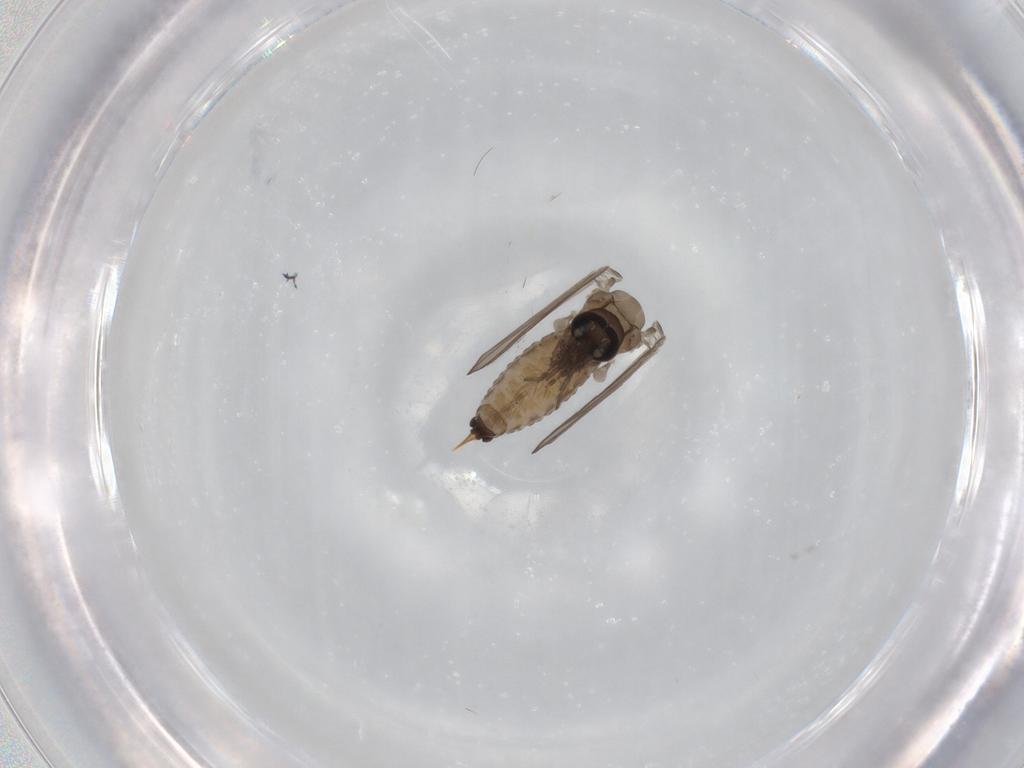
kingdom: Animalia
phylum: Arthropoda
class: Insecta
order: Diptera
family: Psychodidae
